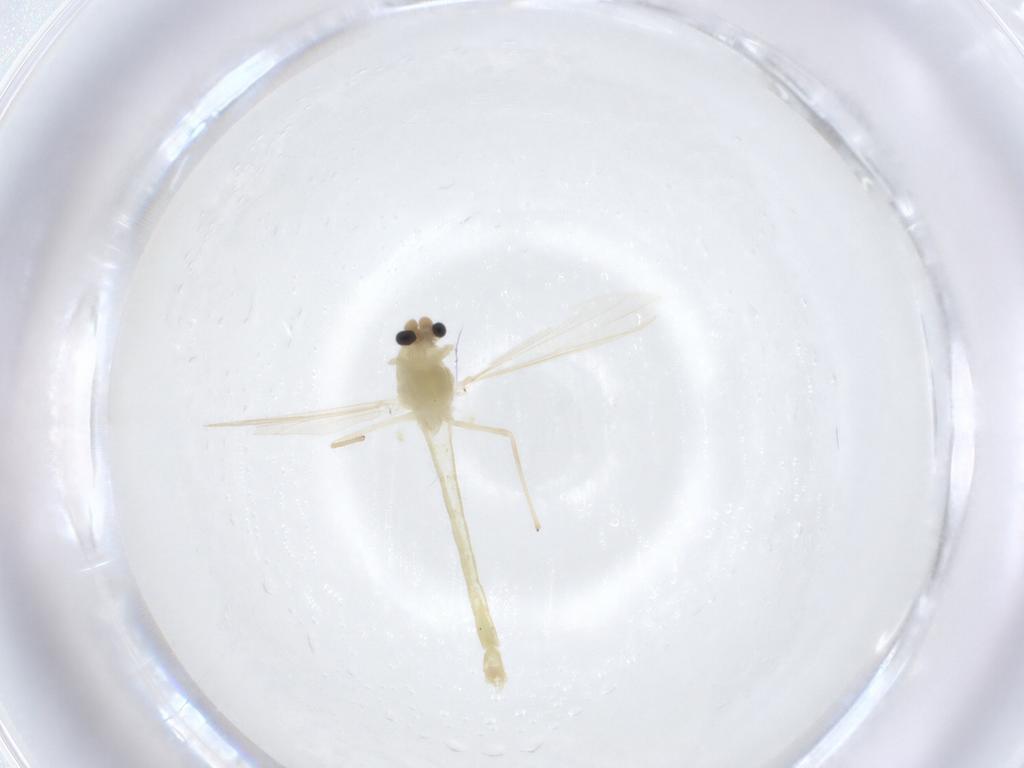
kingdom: Animalia
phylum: Arthropoda
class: Insecta
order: Diptera
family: Chironomidae
